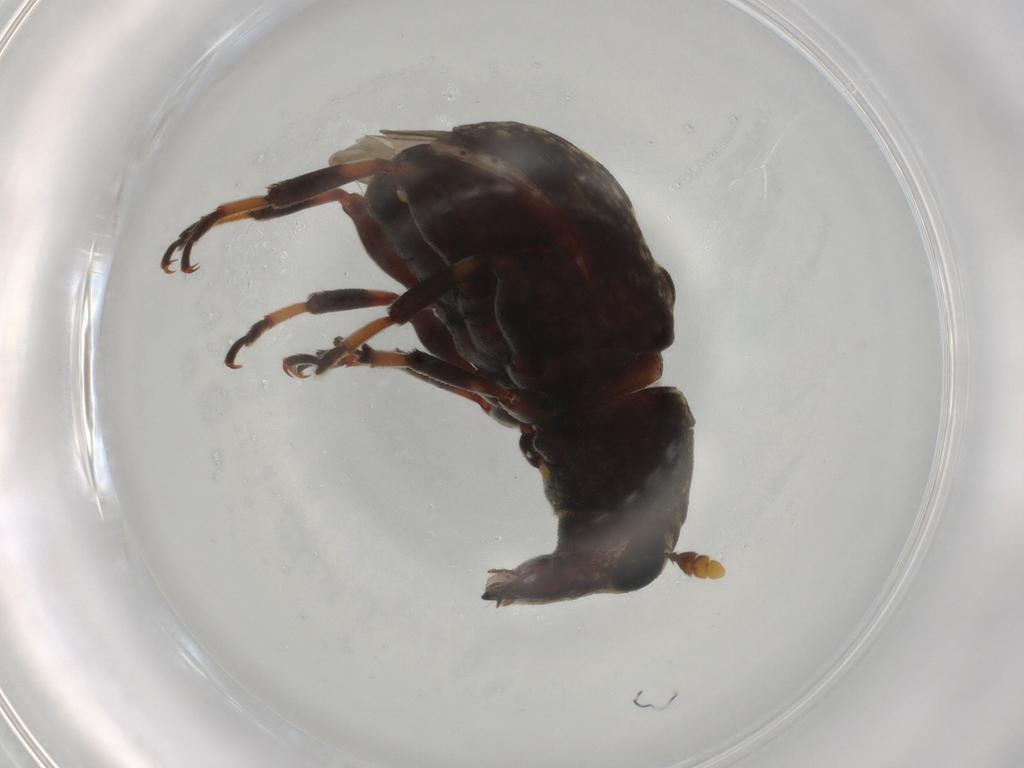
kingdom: Animalia
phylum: Arthropoda
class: Insecta
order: Coleoptera
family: Anthribidae
